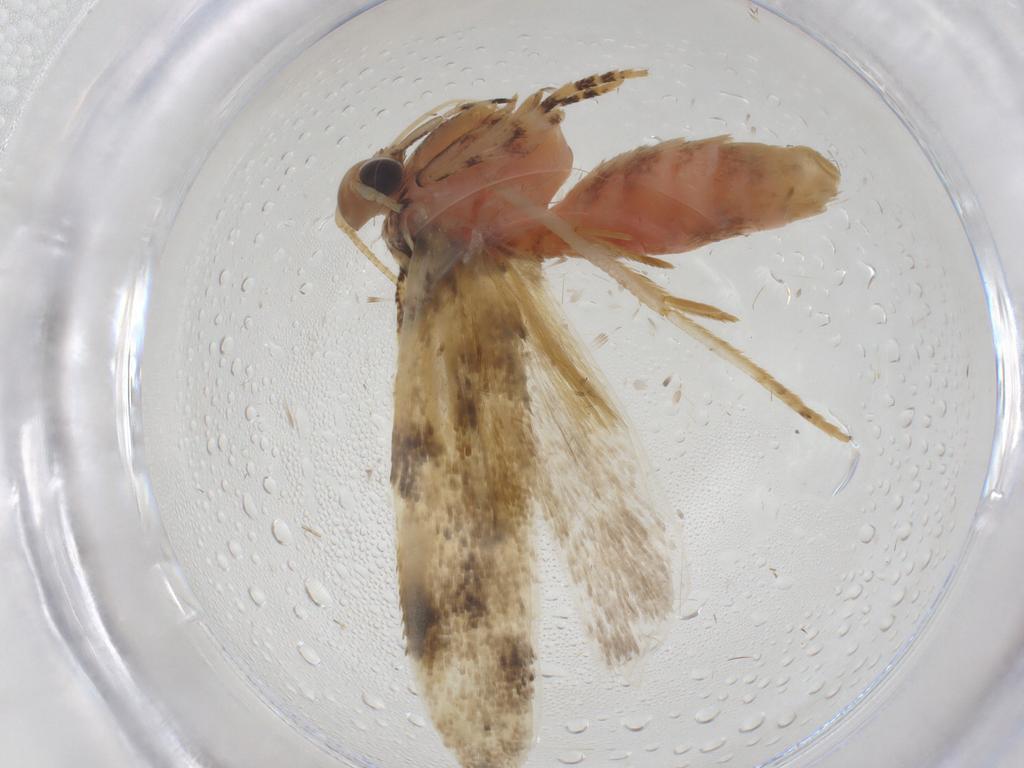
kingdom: Animalia
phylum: Arthropoda
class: Insecta
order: Lepidoptera
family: Gelechiidae
